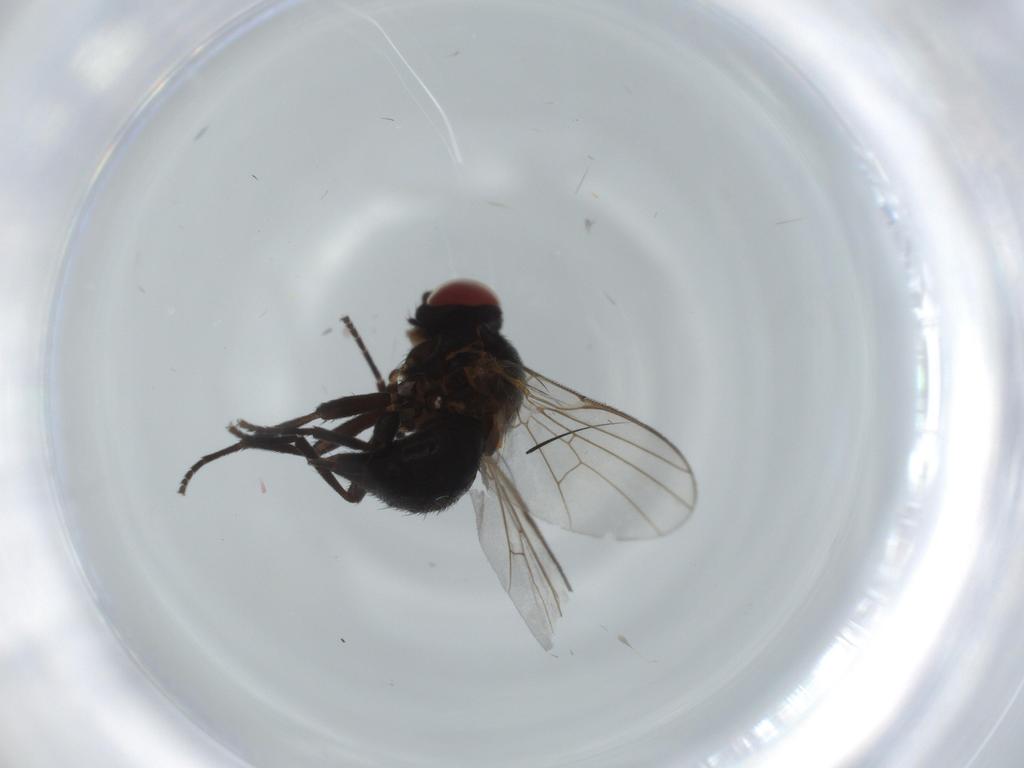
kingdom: Animalia
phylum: Arthropoda
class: Insecta
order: Diptera
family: Agromyzidae
